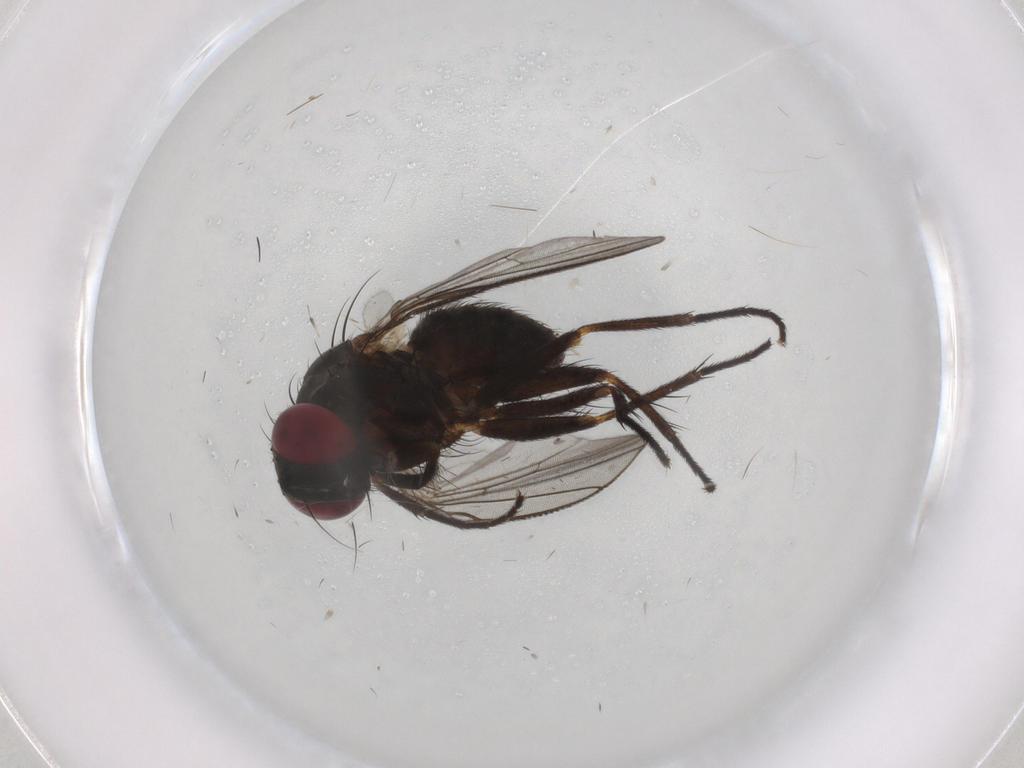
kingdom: Animalia
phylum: Arthropoda
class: Insecta
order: Diptera
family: Muscidae
